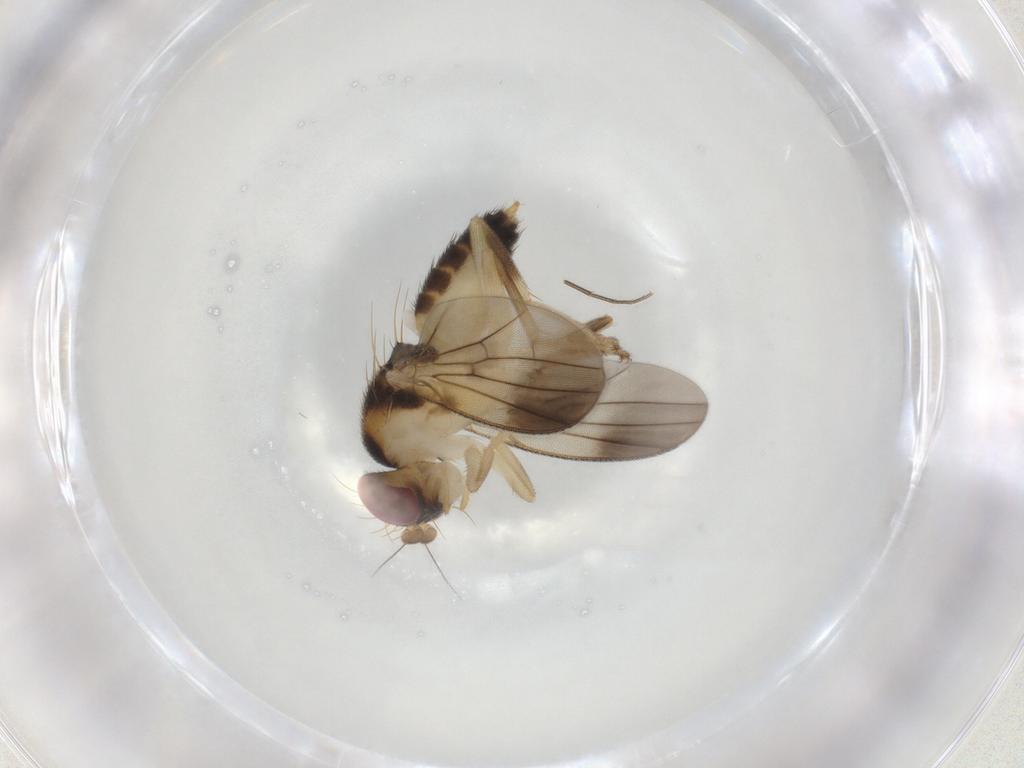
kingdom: Animalia
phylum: Arthropoda
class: Insecta
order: Diptera
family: Clusiidae
